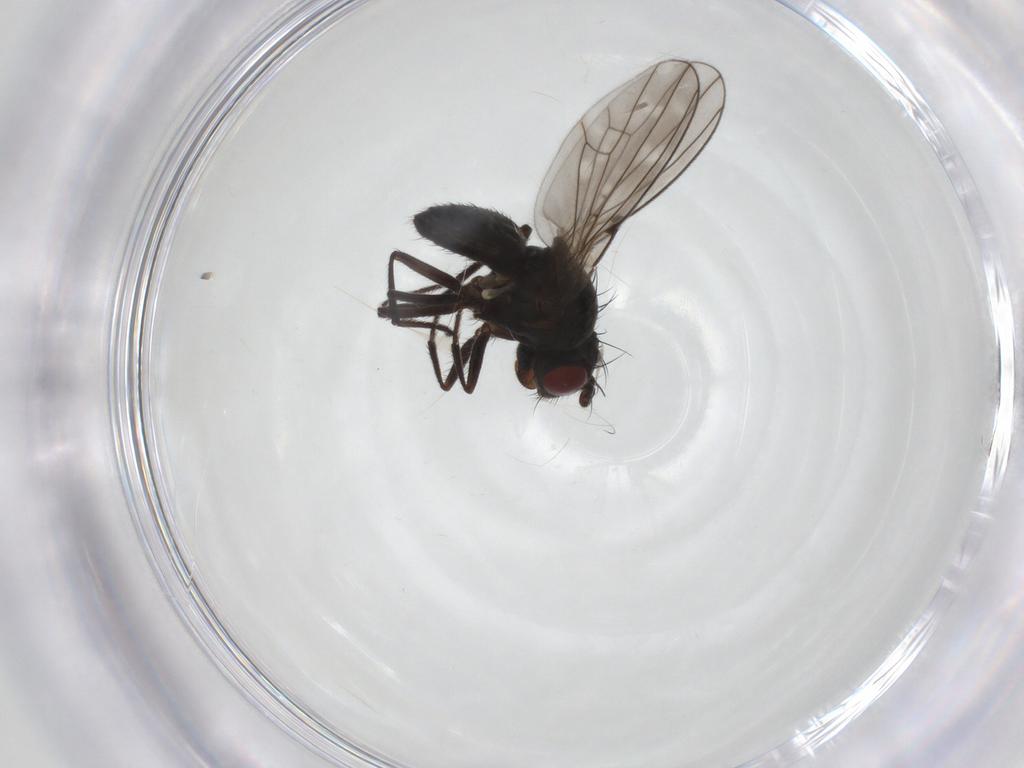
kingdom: Animalia
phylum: Arthropoda
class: Insecta
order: Diptera
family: Ephydridae
